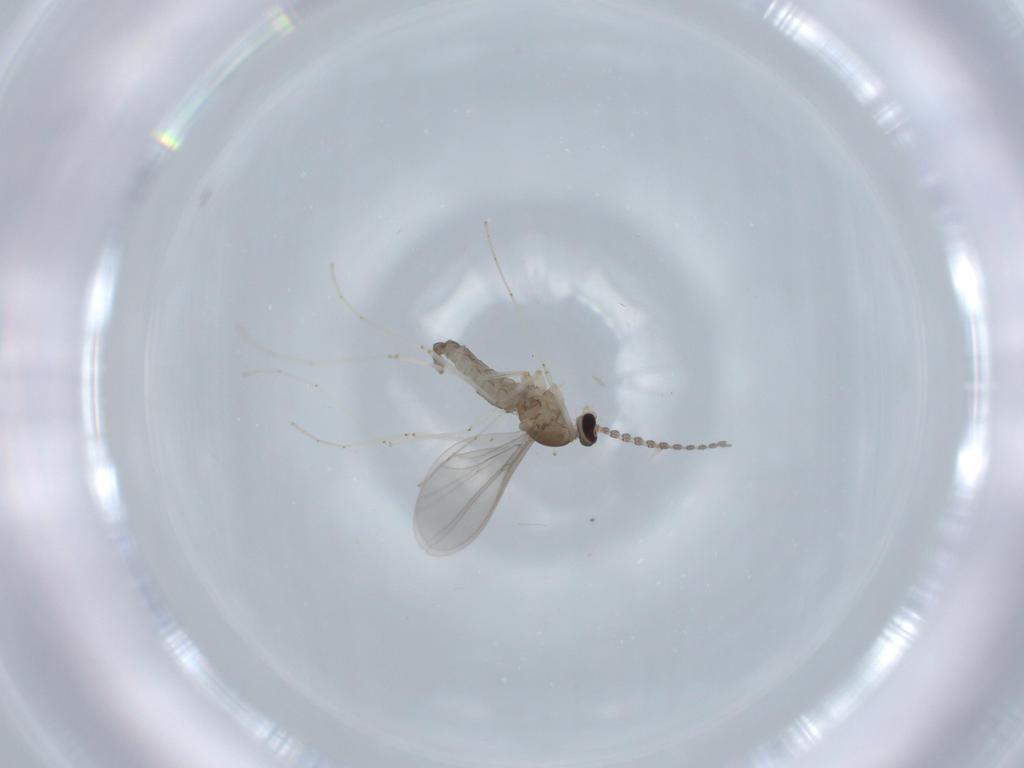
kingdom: Animalia
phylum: Arthropoda
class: Insecta
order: Diptera
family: Cecidomyiidae
